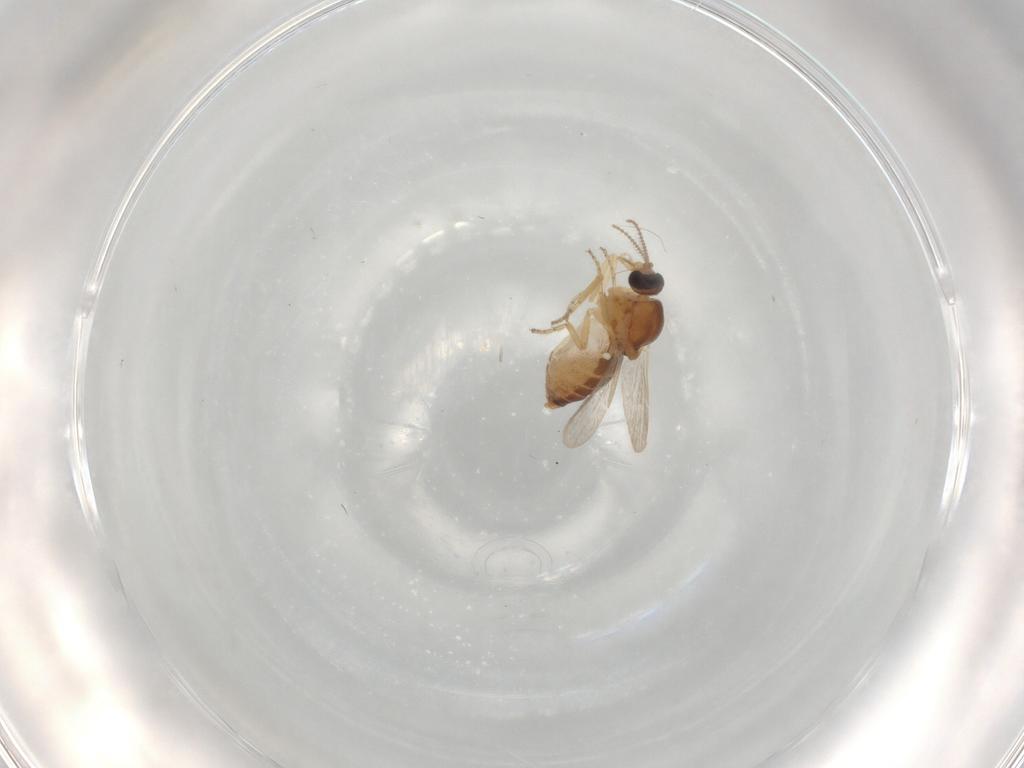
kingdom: Animalia
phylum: Arthropoda
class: Insecta
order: Diptera
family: Ceratopogonidae
